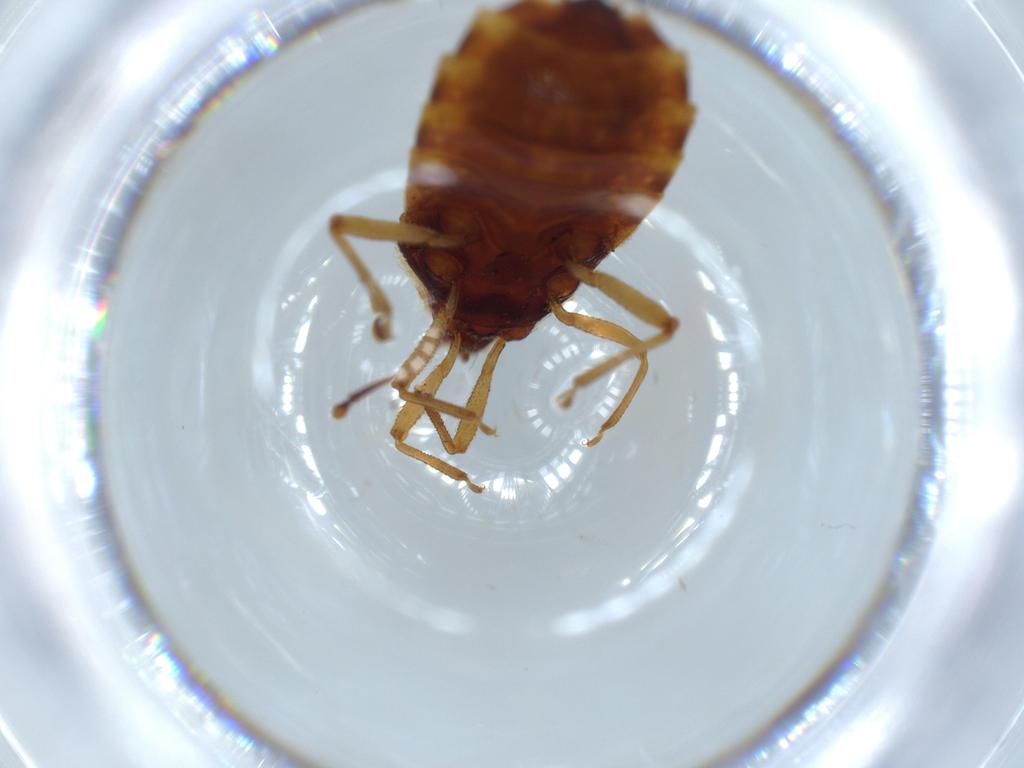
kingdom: Animalia
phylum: Arthropoda
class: Insecta
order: Hemiptera
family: Aradidae
